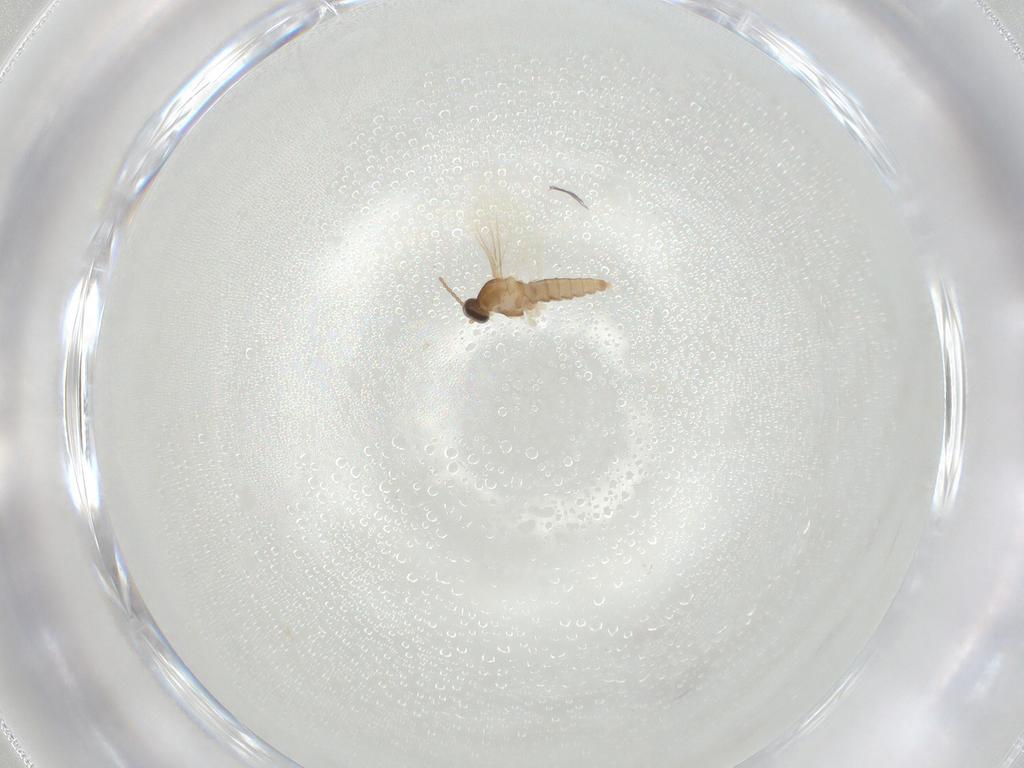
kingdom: Animalia
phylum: Arthropoda
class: Insecta
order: Diptera
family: Cecidomyiidae
